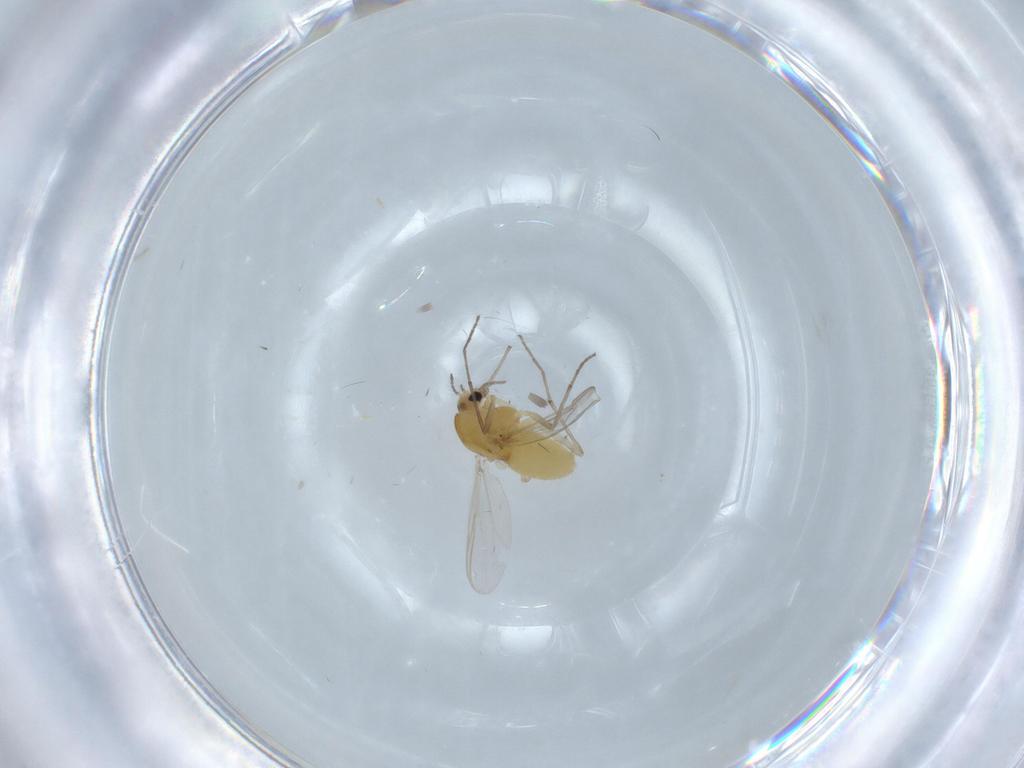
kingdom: Animalia
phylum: Arthropoda
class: Insecta
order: Diptera
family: Chironomidae
